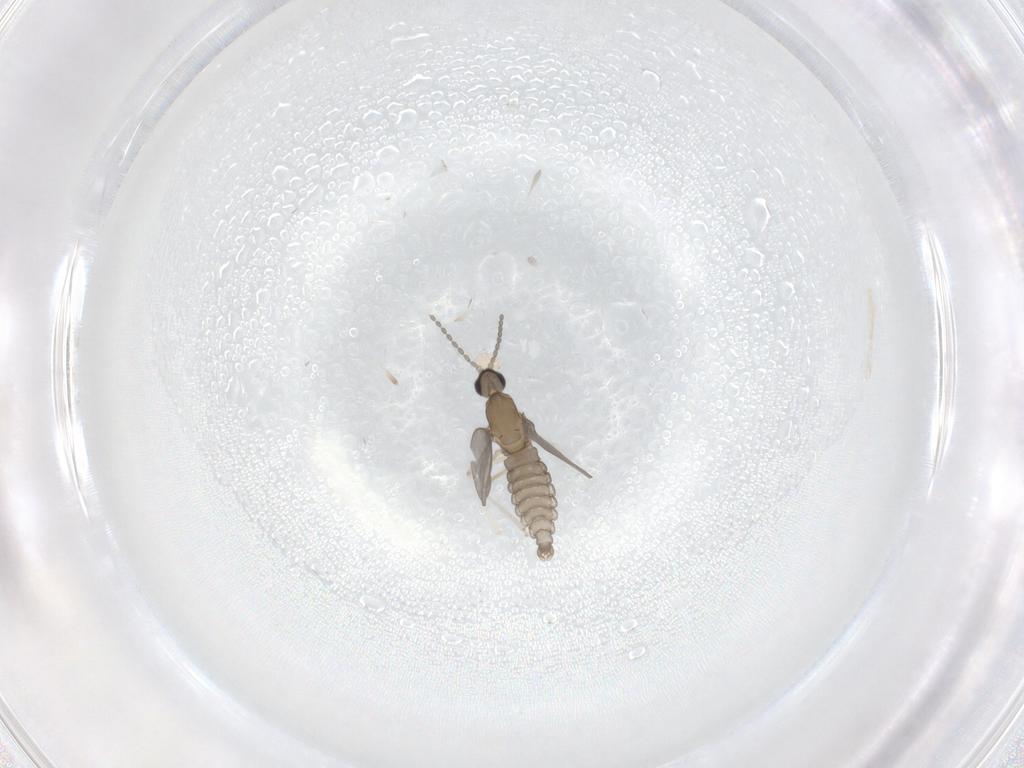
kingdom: Animalia
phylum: Arthropoda
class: Insecta
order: Diptera
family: Cecidomyiidae
